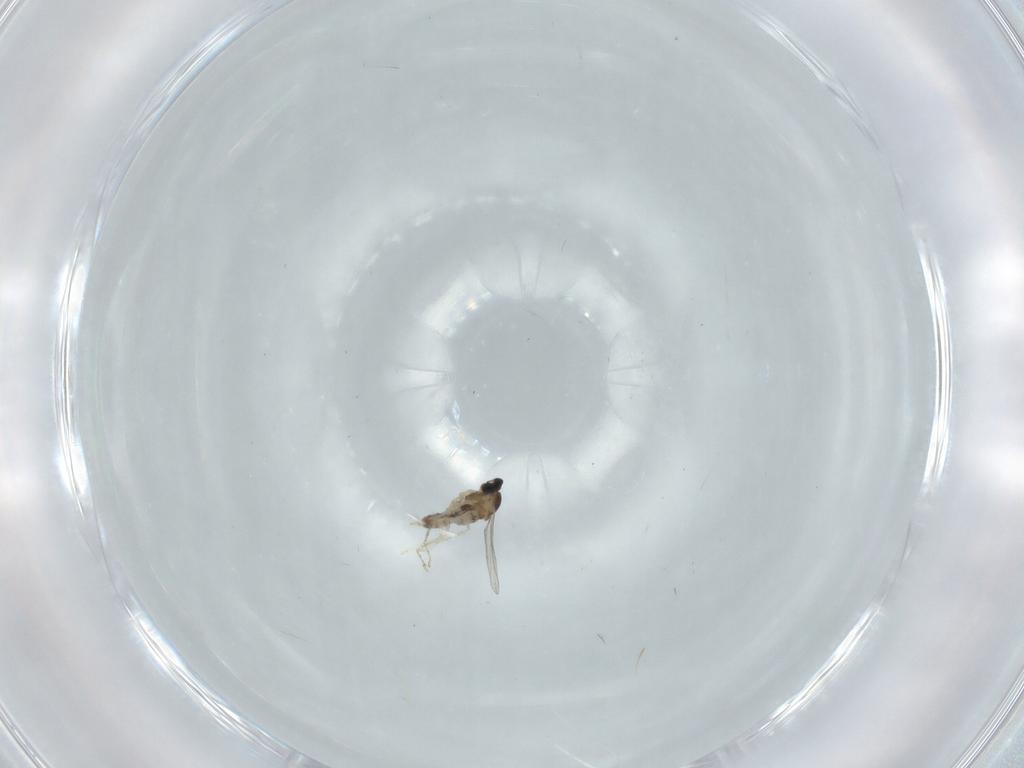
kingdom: Animalia
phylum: Arthropoda
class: Insecta
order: Diptera
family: Cecidomyiidae
